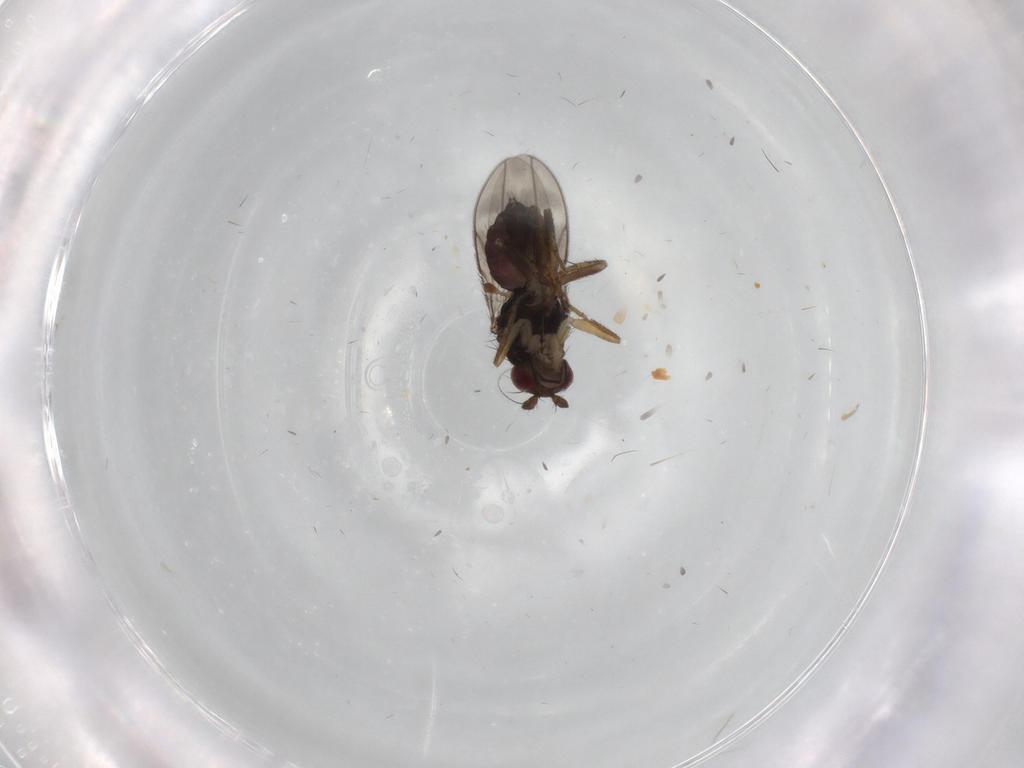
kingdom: Animalia
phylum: Arthropoda
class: Insecta
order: Diptera
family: Sphaeroceridae
